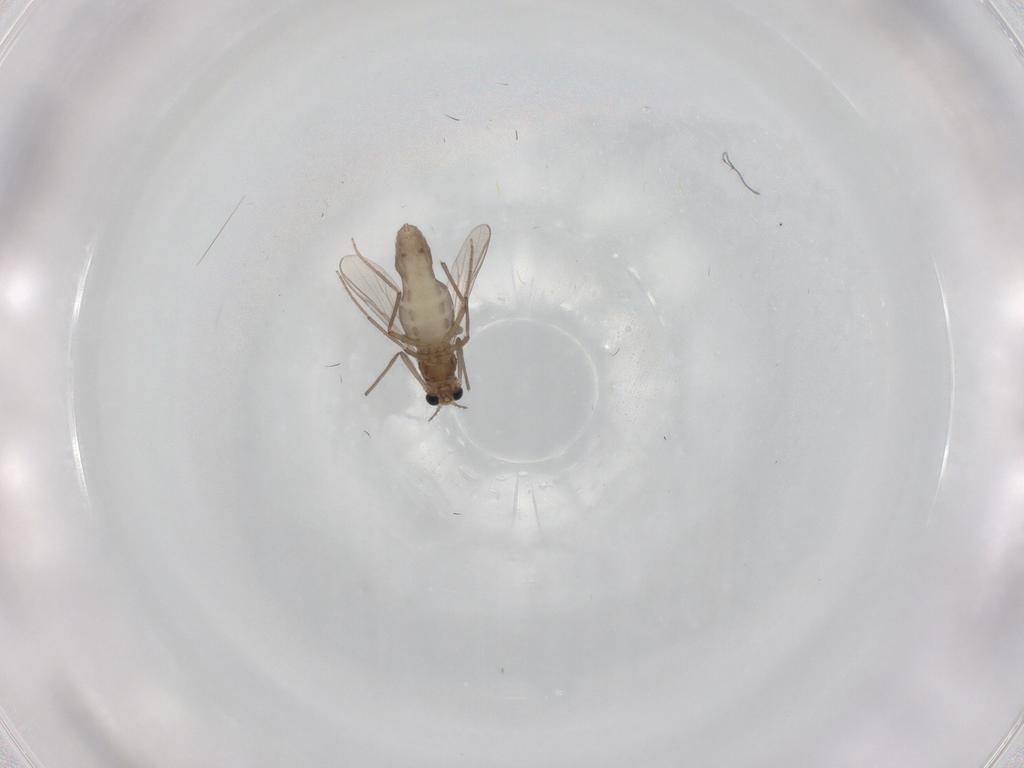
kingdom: Animalia
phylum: Arthropoda
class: Insecta
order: Diptera
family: Chironomidae
